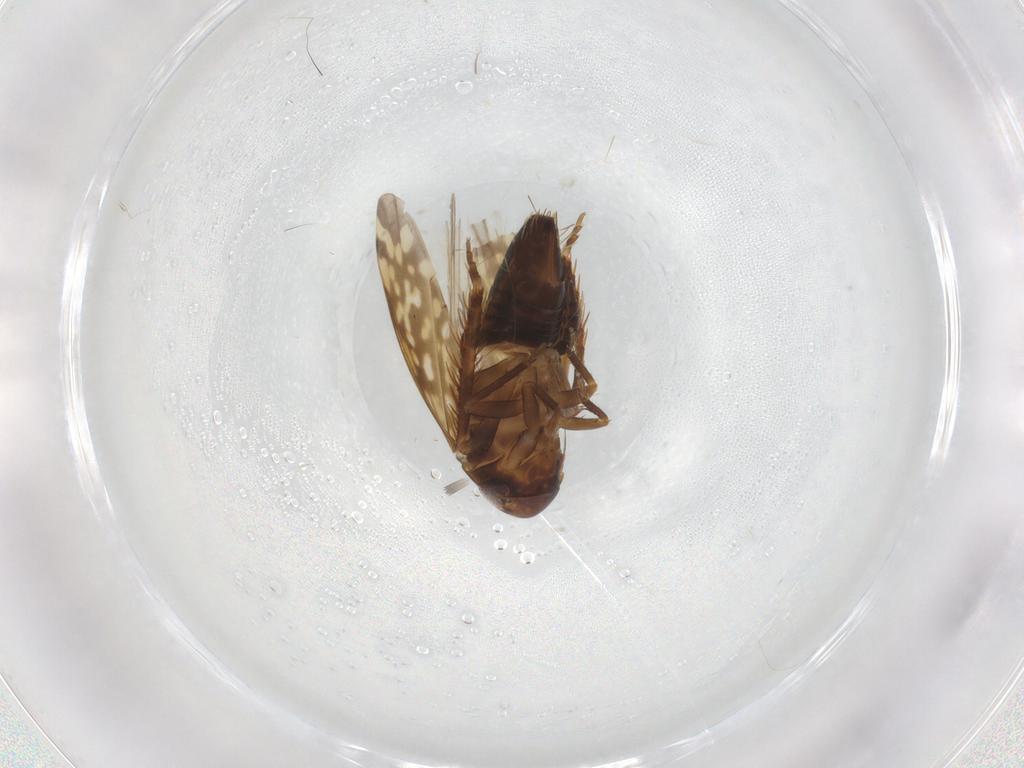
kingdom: Animalia
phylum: Arthropoda
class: Insecta
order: Hemiptera
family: Cicadellidae
